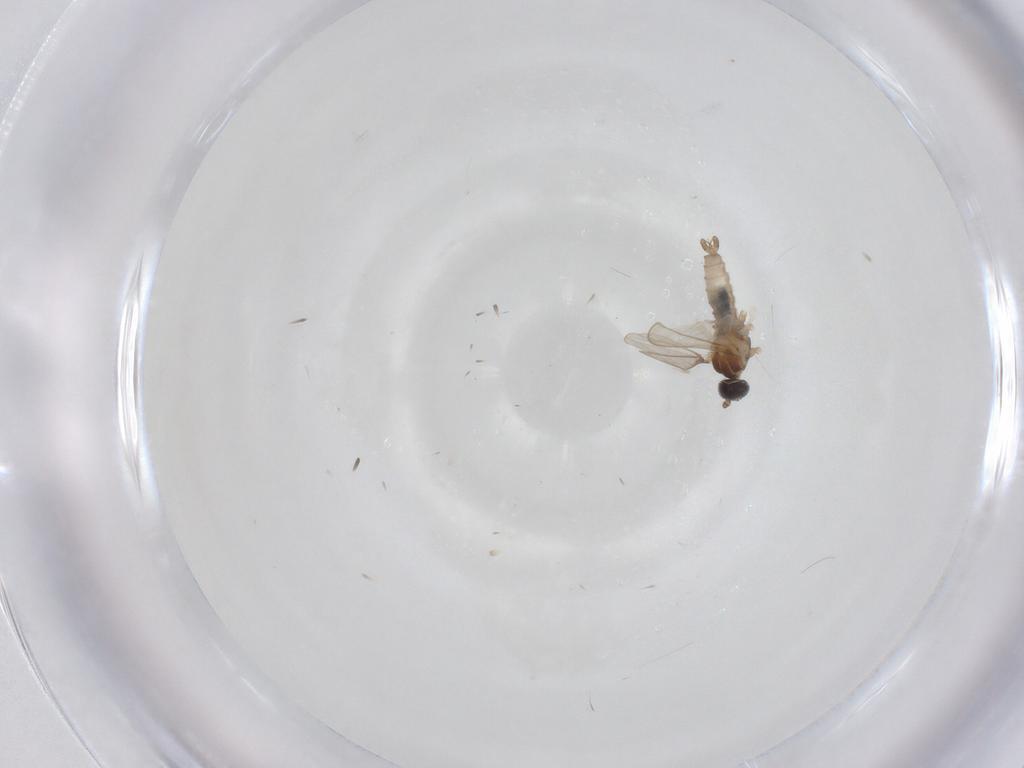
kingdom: Animalia
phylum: Arthropoda
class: Insecta
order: Diptera
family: Cecidomyiidae
